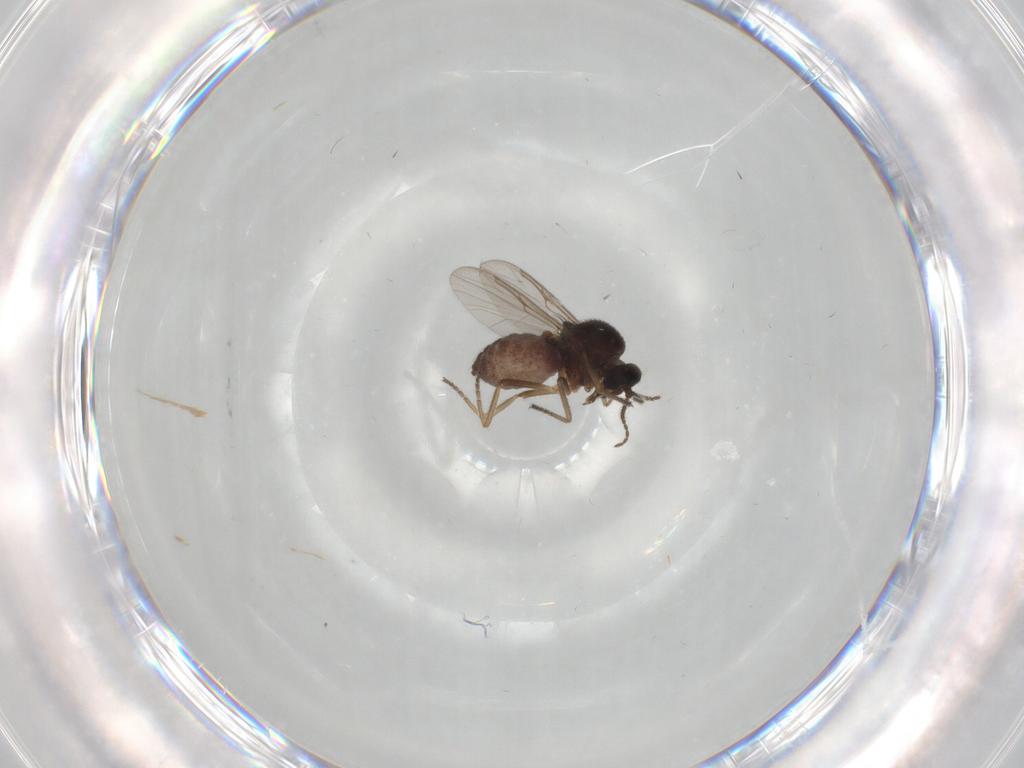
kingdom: Animalia
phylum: Arthropoda
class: Insecta
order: Diptera
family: Ceratopogonidae
